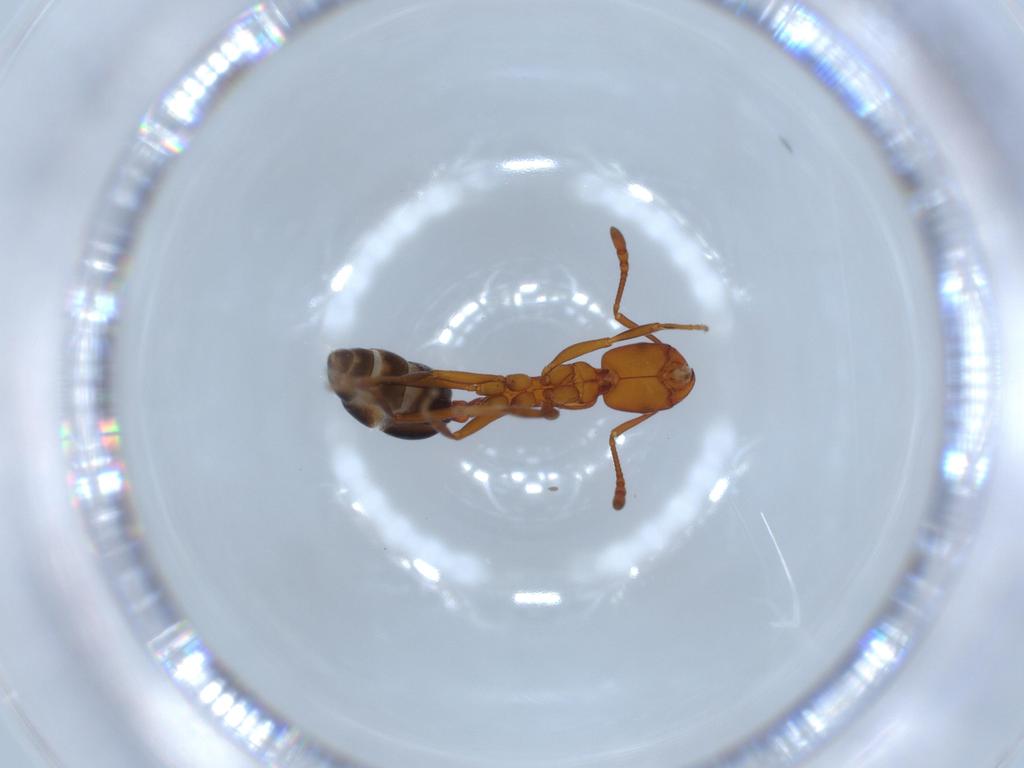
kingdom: Animalia
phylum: Arthropoda
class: Insecta
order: Hymenoptera
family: Formicidae
